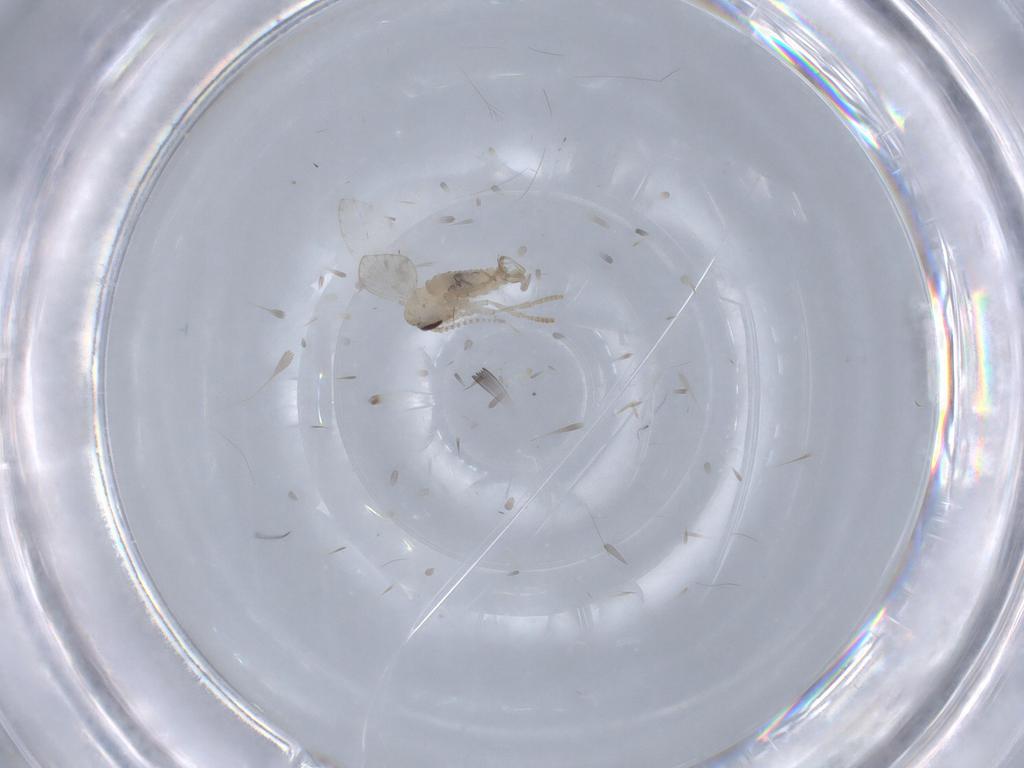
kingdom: Animalia
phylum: Arthropoda
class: Insecta
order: Diptera
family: Psychodidae
